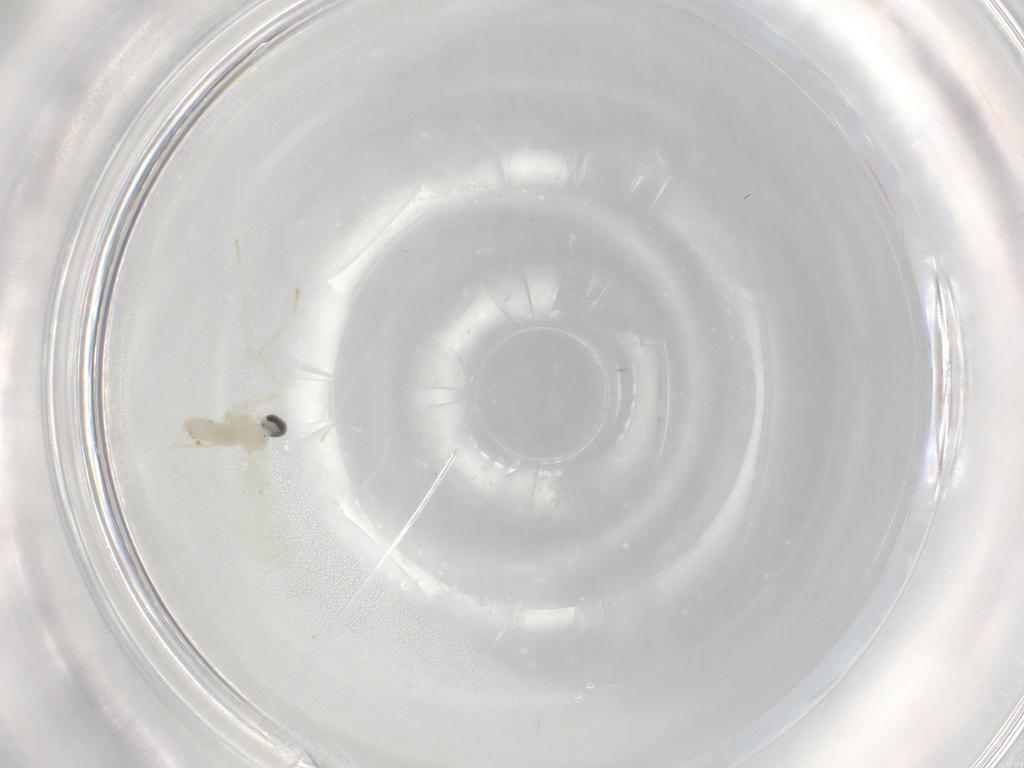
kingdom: Animalia
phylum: Arthropoda
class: Insecta
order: Diptera
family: Cecidomyiidae
